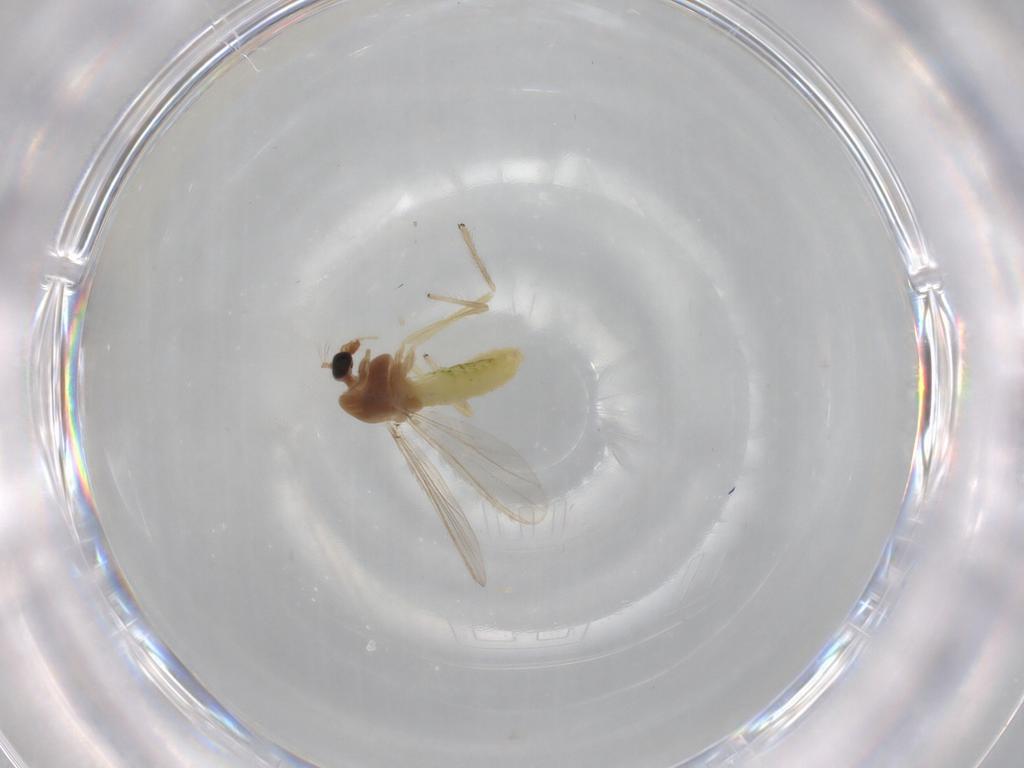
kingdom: Animalia
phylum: Arthropoda
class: Insecta
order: Diptera
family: Chironomidae
